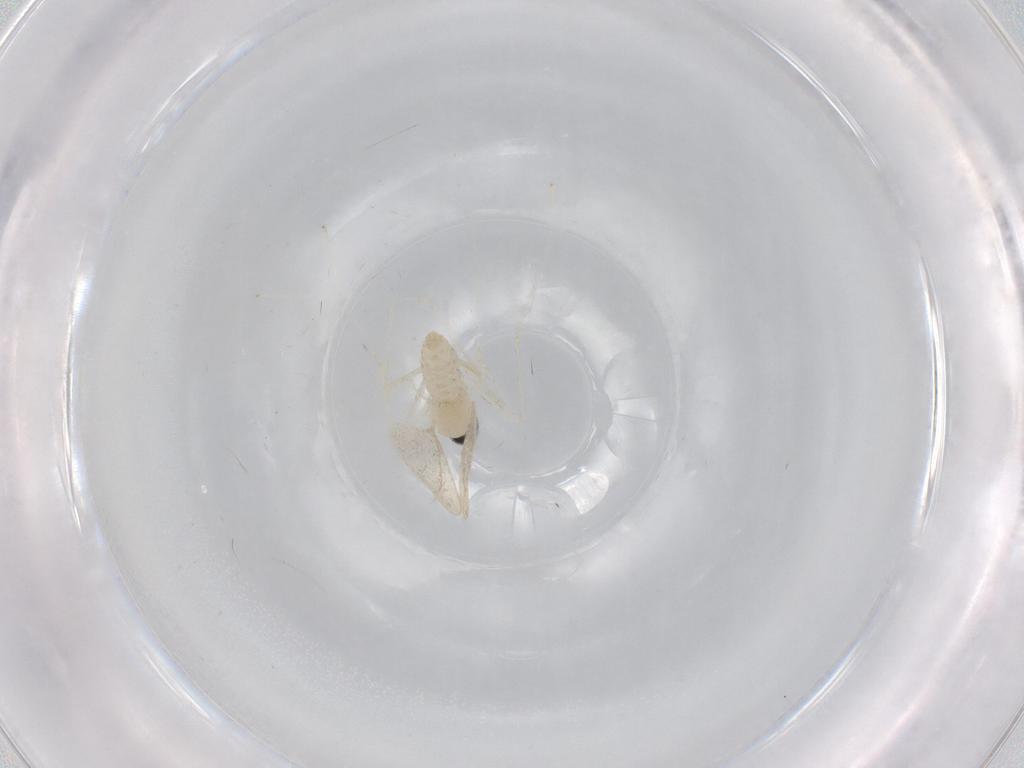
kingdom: Animalia
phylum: Arthropoda
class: Insecta
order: Diptera
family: Cecidomyiidae
